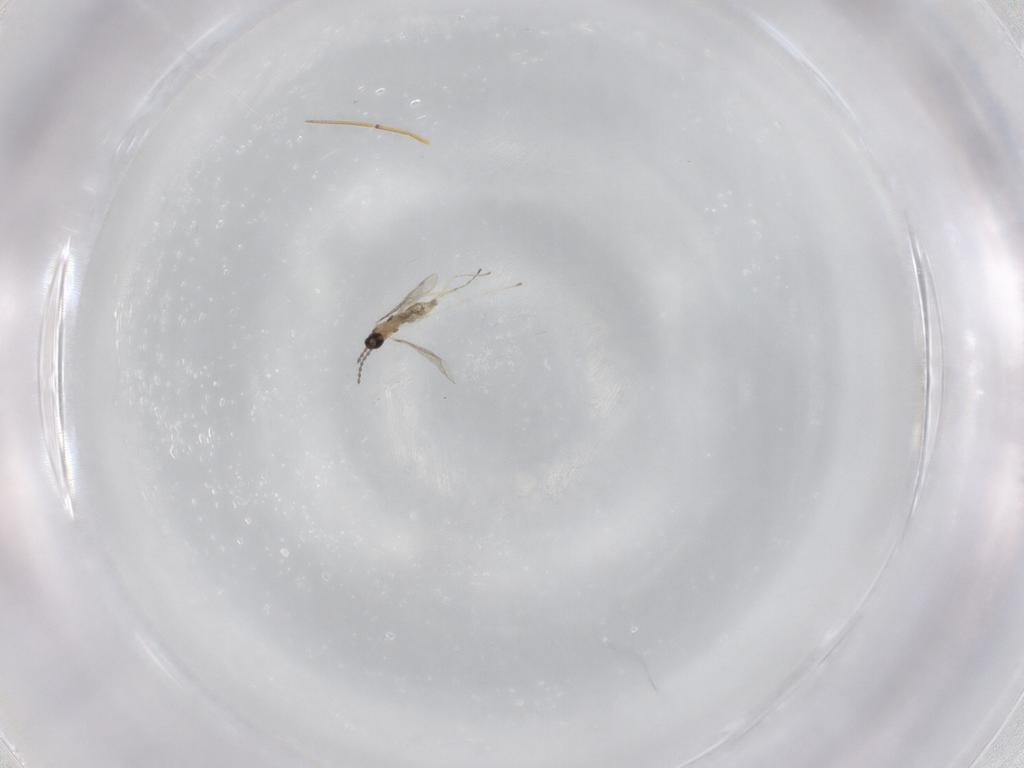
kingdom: Animalia
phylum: Arthropoda
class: Insecta
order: Diptera
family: Cecidomyiidae
